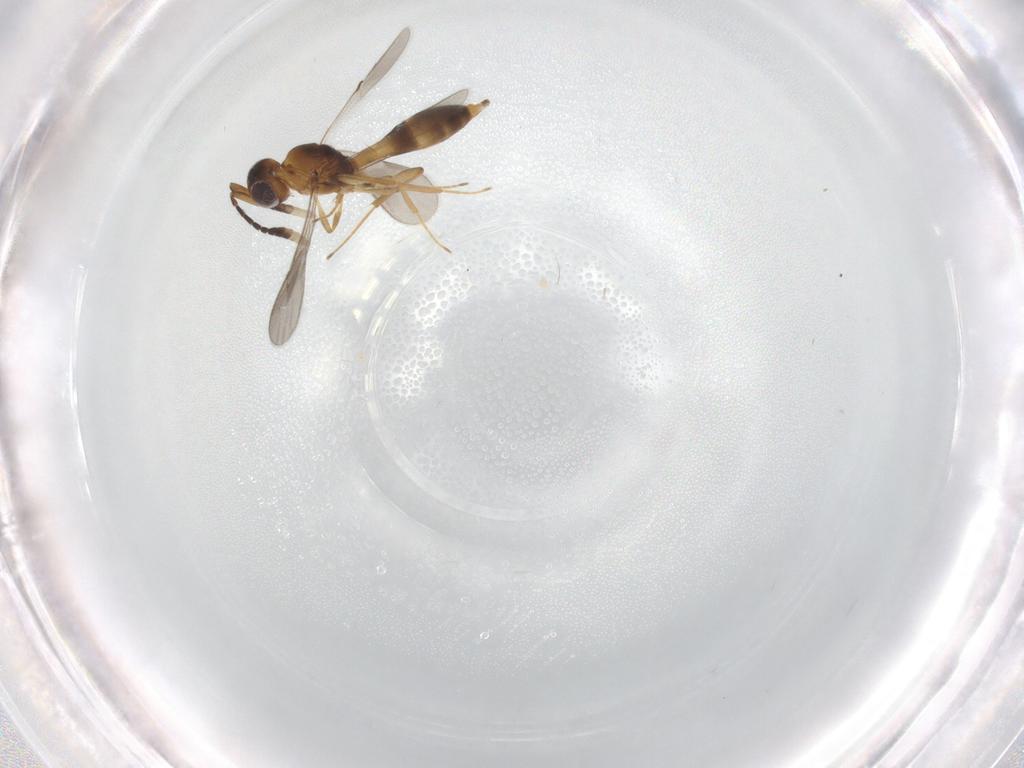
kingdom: Animalia
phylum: Arthropoda
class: Insecta
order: Hymenoptera
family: Scelionidae
